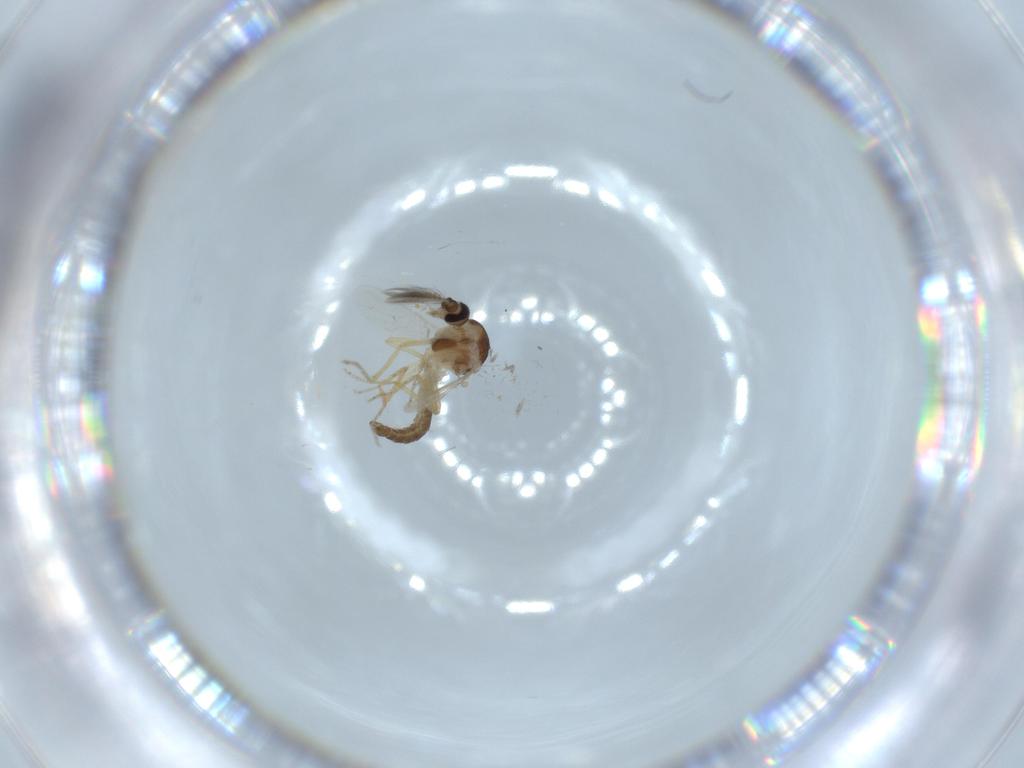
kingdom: Animalia
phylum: Arthropoda
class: Insecta
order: Diptera
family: Ceratopogonidae
